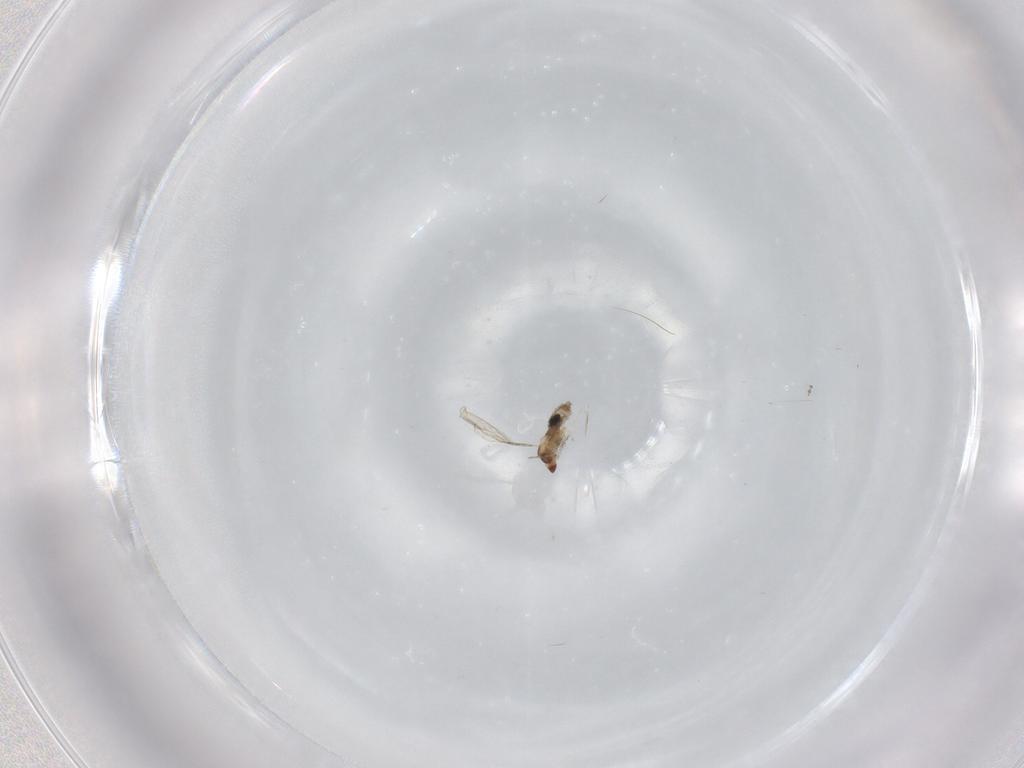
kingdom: Animalia
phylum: Arthropoda
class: Insecta
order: Diptera
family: Cecidomyiidae
